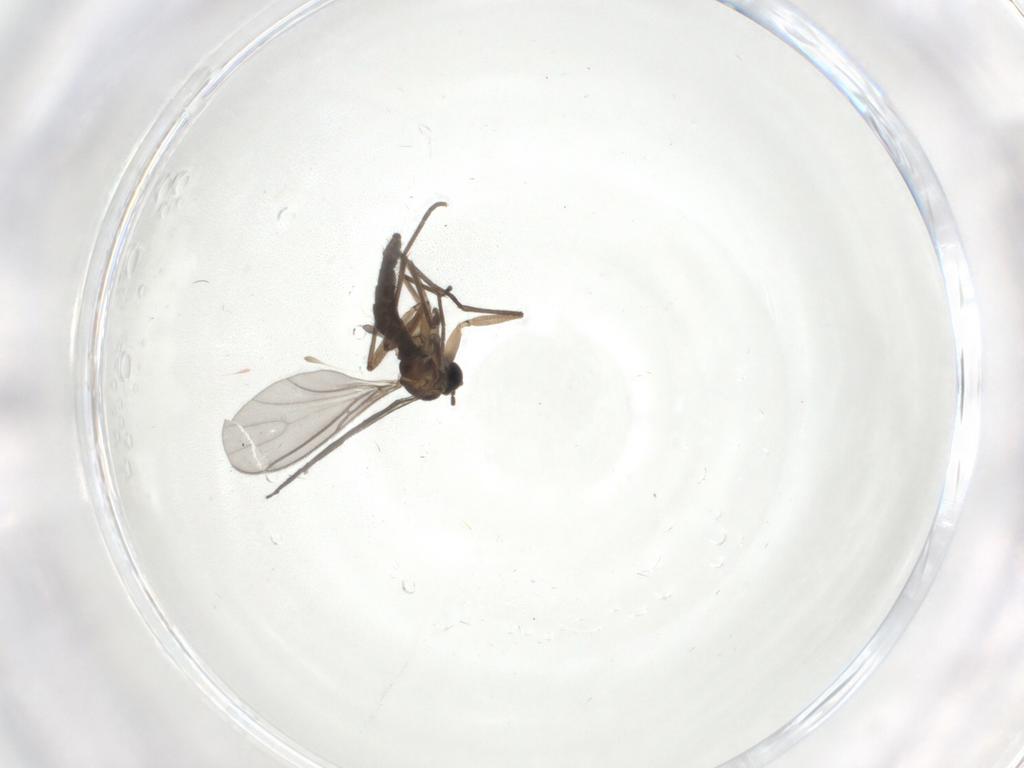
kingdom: Animalia
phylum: Arthropoda
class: Insecta
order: Diptera
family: Sciaridae
